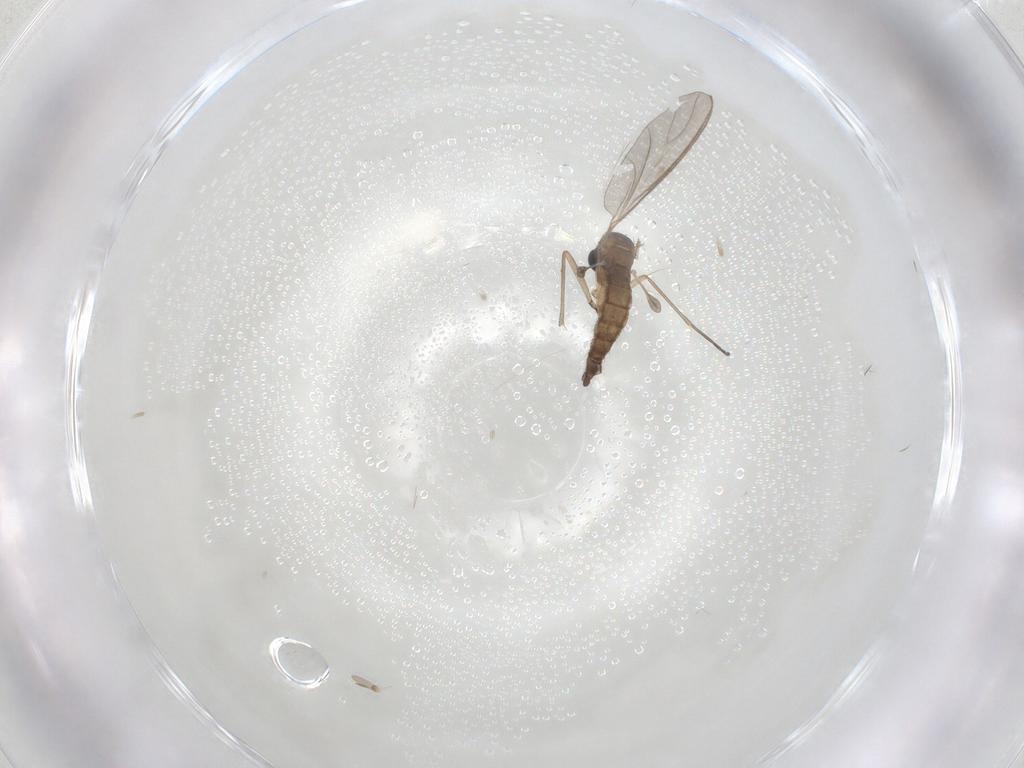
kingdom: Animalia
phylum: Arthropoda
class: Insecta
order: Diptera
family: Sciaridae
